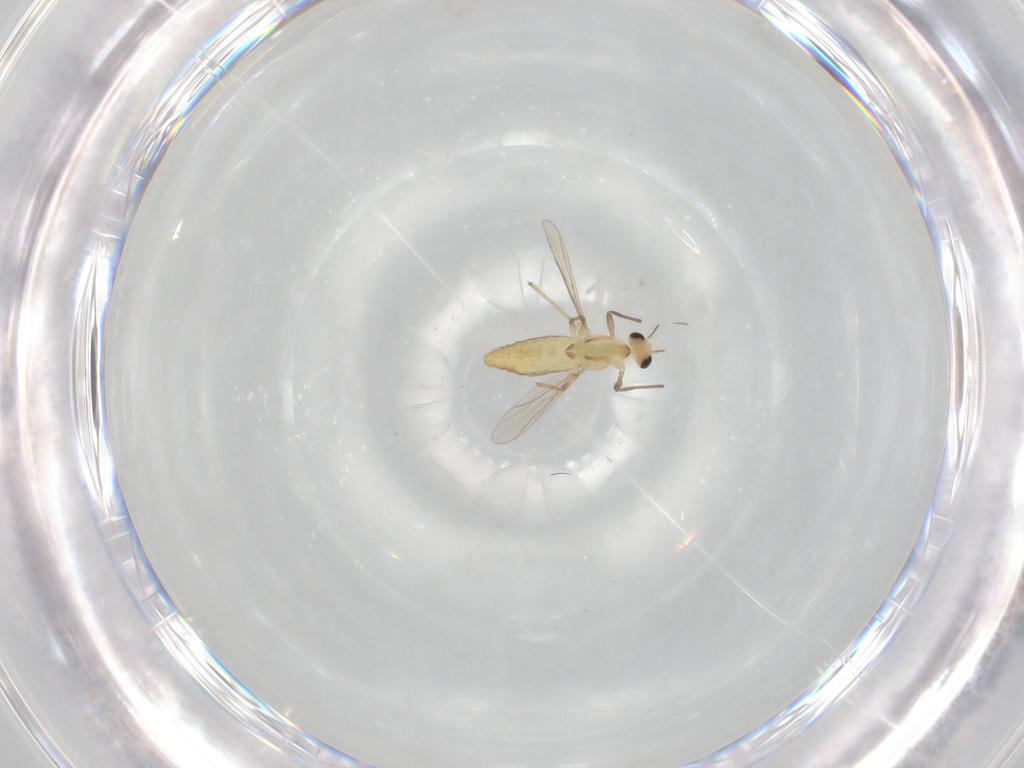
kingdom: Animalia
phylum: Arthropoda
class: Insecta
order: Diptera
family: Chironomidae
